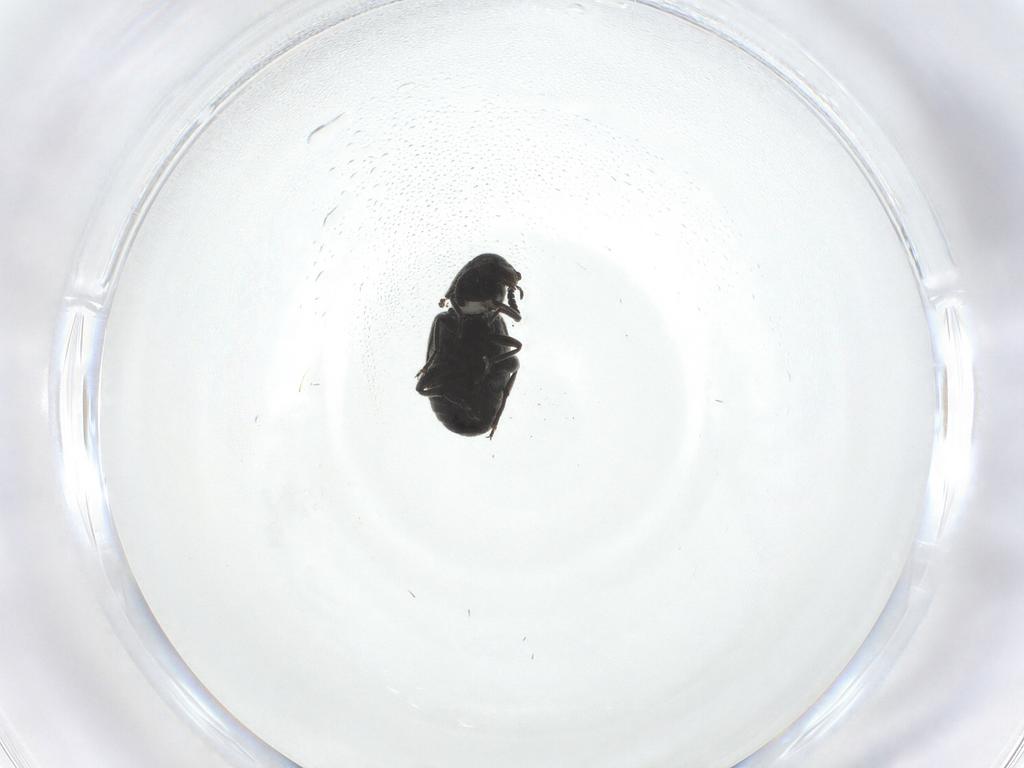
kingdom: Animalia
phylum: Arthropoda
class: Insecta
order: Coleoptera
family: Chrysomelidae
